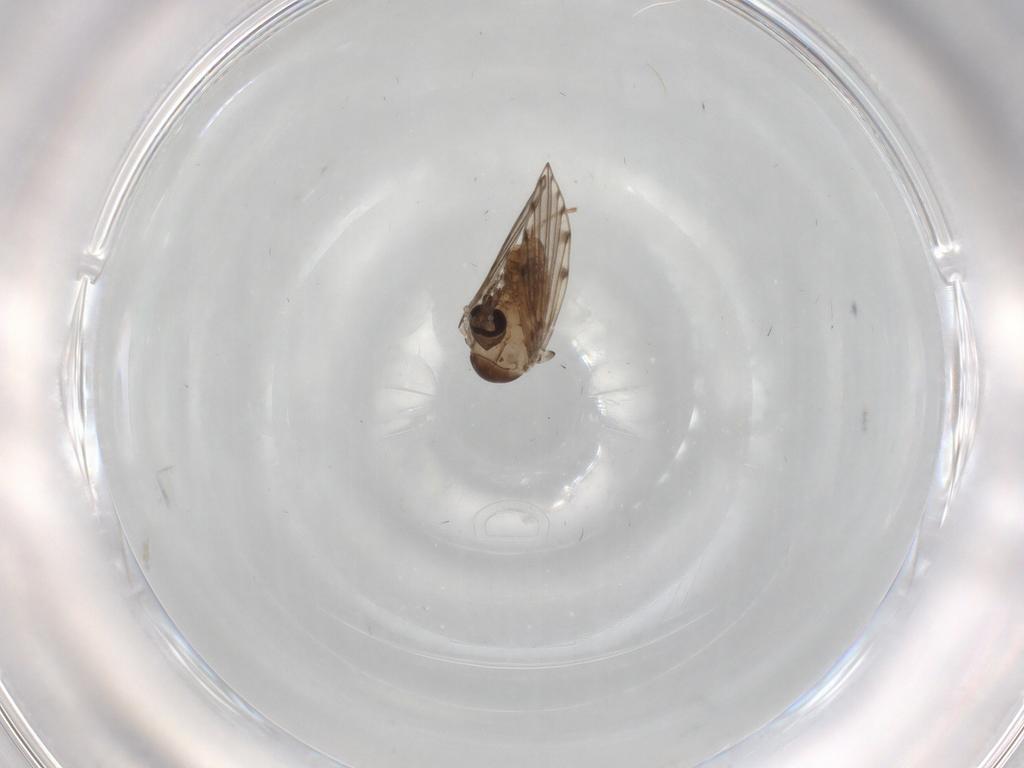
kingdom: Animalia
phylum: Arthropoda
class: Insecta
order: Diptera
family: Psychodidae
